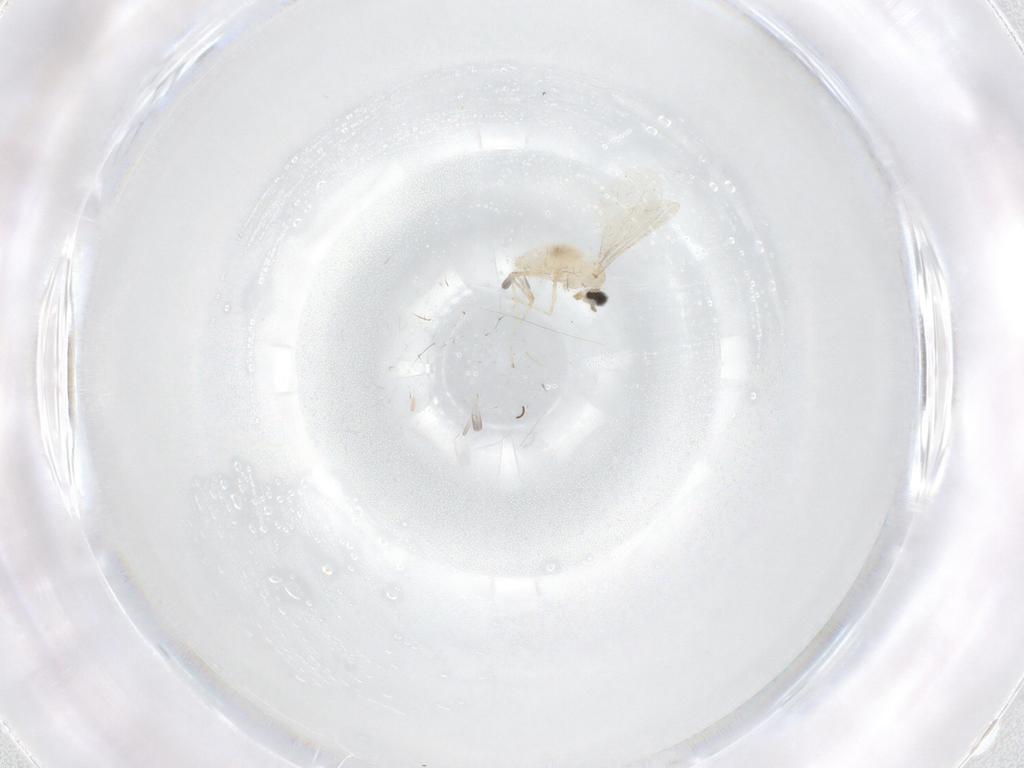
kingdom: Animalia
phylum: Arthropoda
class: Insecta
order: Diptera
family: Cecidomyiidae
